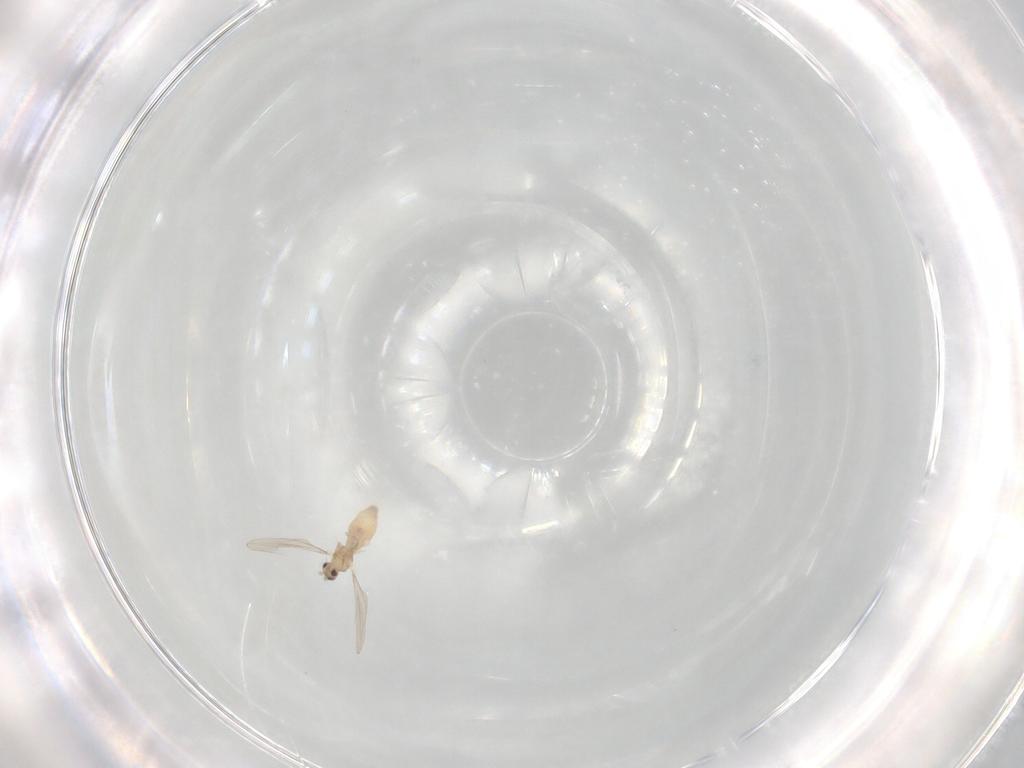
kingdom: Animalia
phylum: Arthropoda
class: Insecta
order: Diptera
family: Cecidomyiidae
